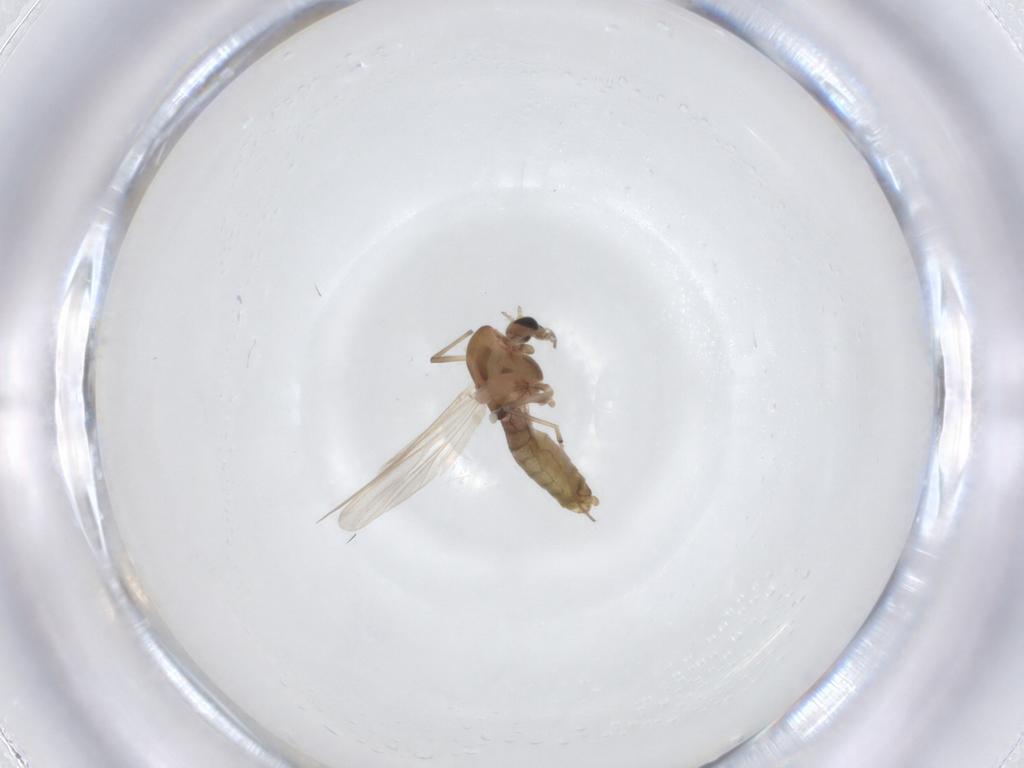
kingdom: Animalia
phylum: Arthropoda
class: Insecta
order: Diptera
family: Chironomidae
